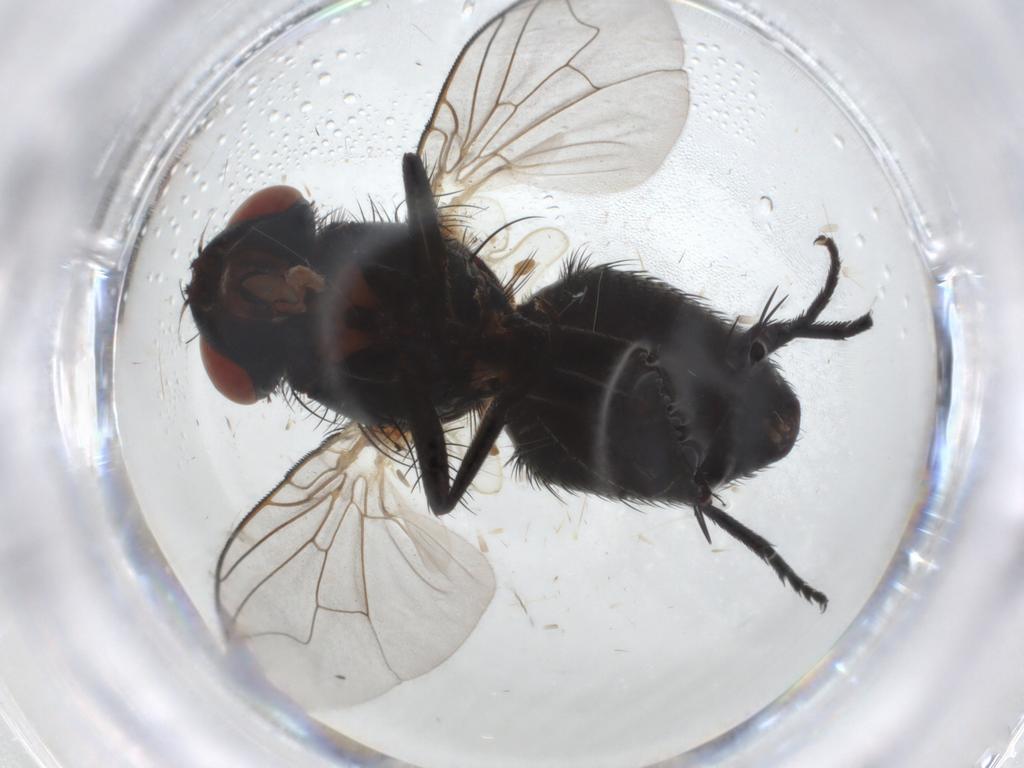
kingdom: Animalia
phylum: Arthropoda
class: Insecta
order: Diptera
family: Sarcophagidae
